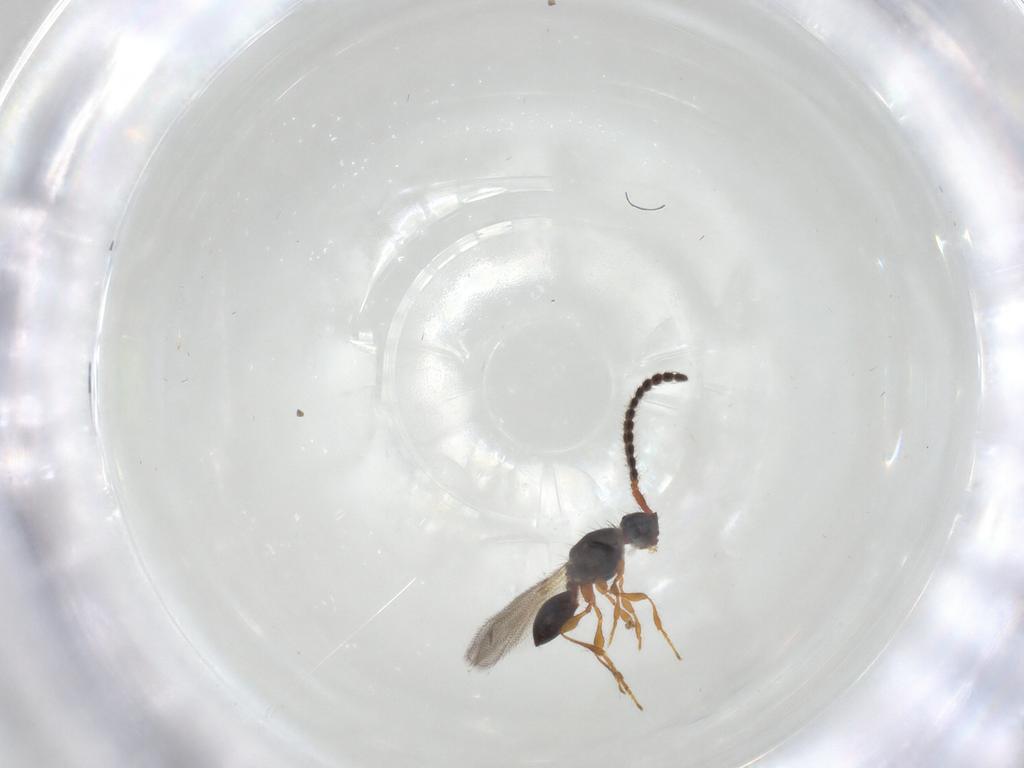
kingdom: Animalia
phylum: Arthropoda
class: Insecta
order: Hymenoptera
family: Diapriidae
